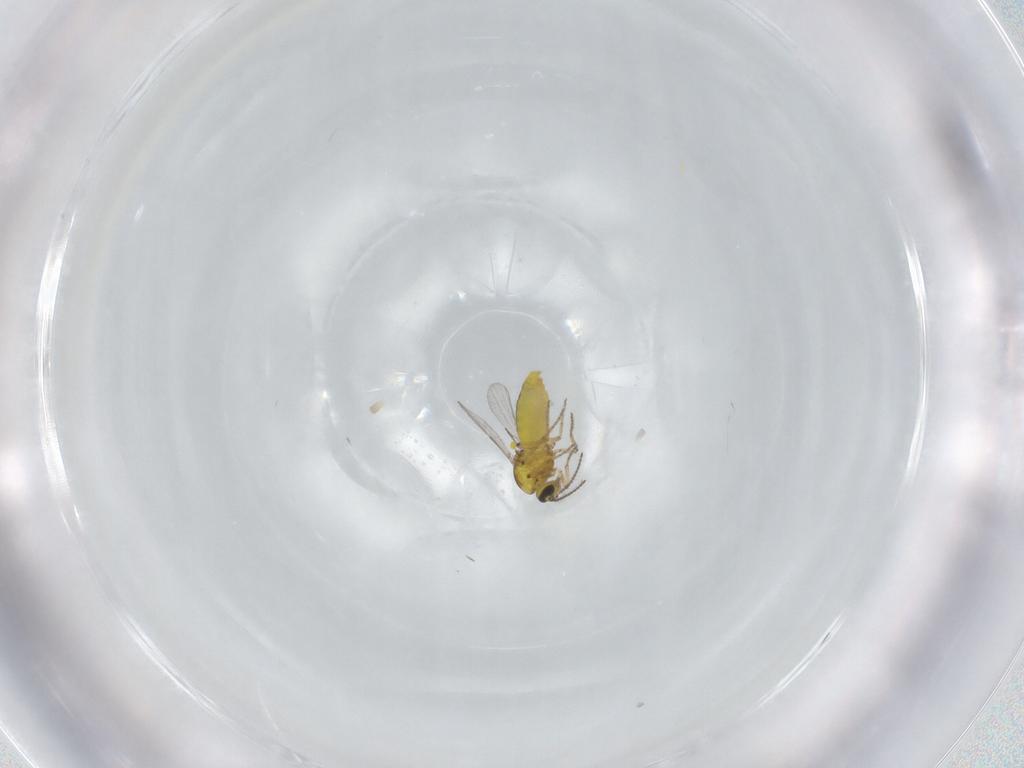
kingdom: Animalia
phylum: Arthropoda
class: Insecta
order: Diptera
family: Ceratopogonidae
